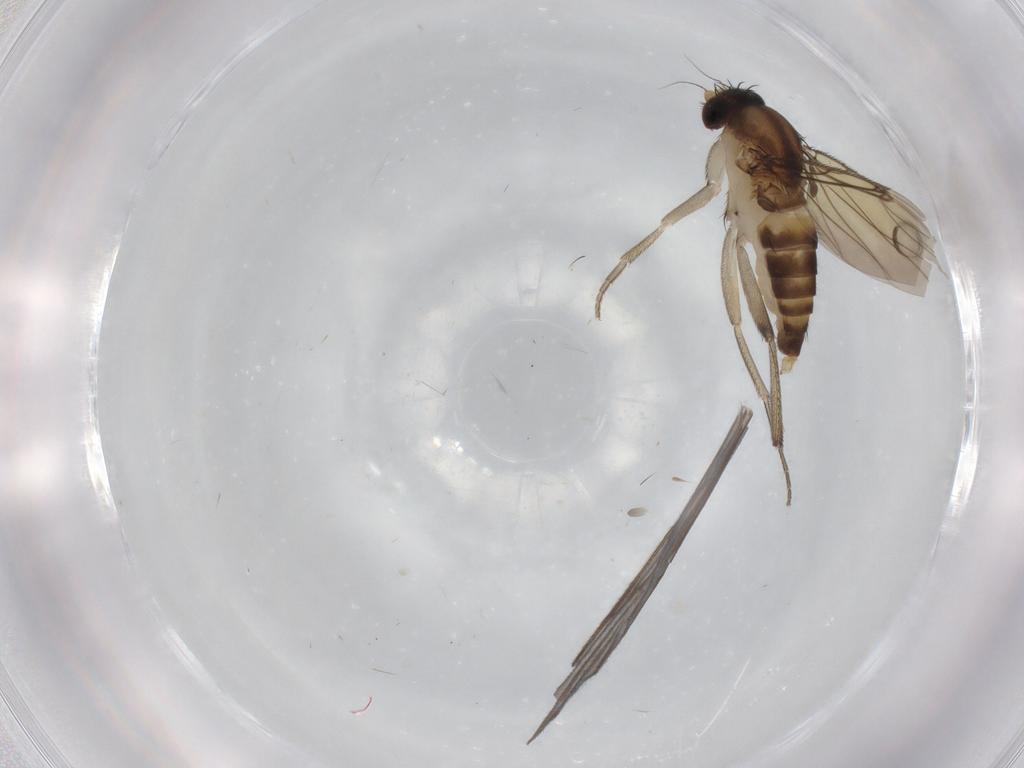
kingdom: Animalia
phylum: Arthropoda
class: Insecta
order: Diptera
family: Phoridae
